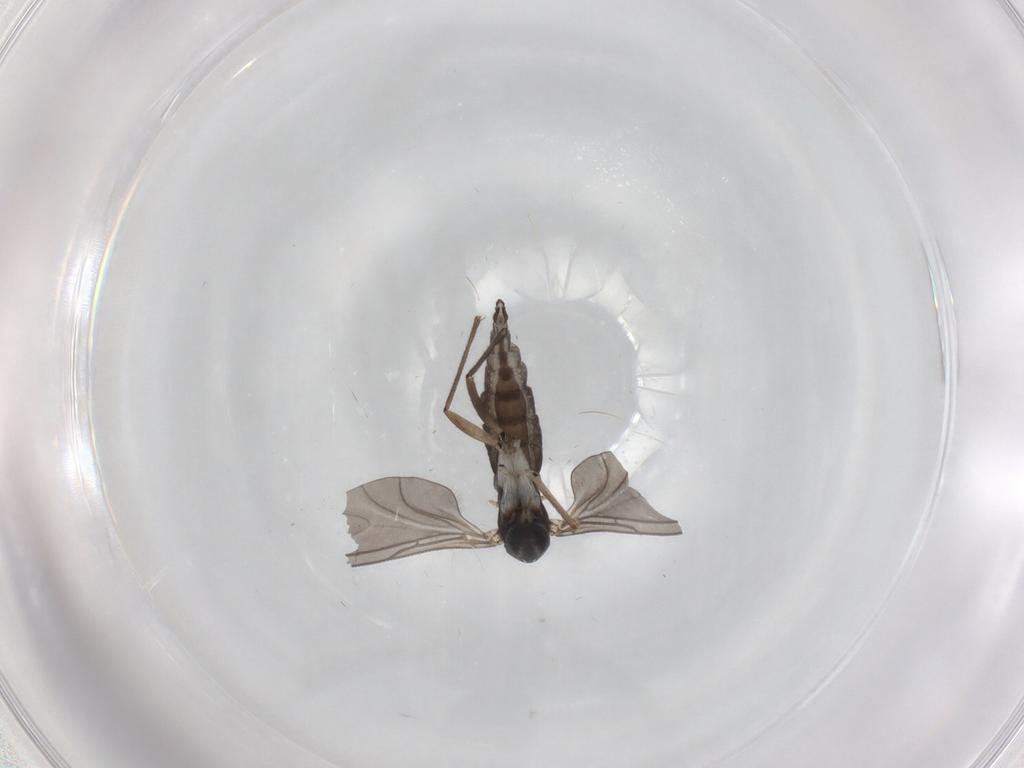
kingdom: Animalia
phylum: Arthropoda
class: Insecta
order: Diptera
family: Sciaridae
